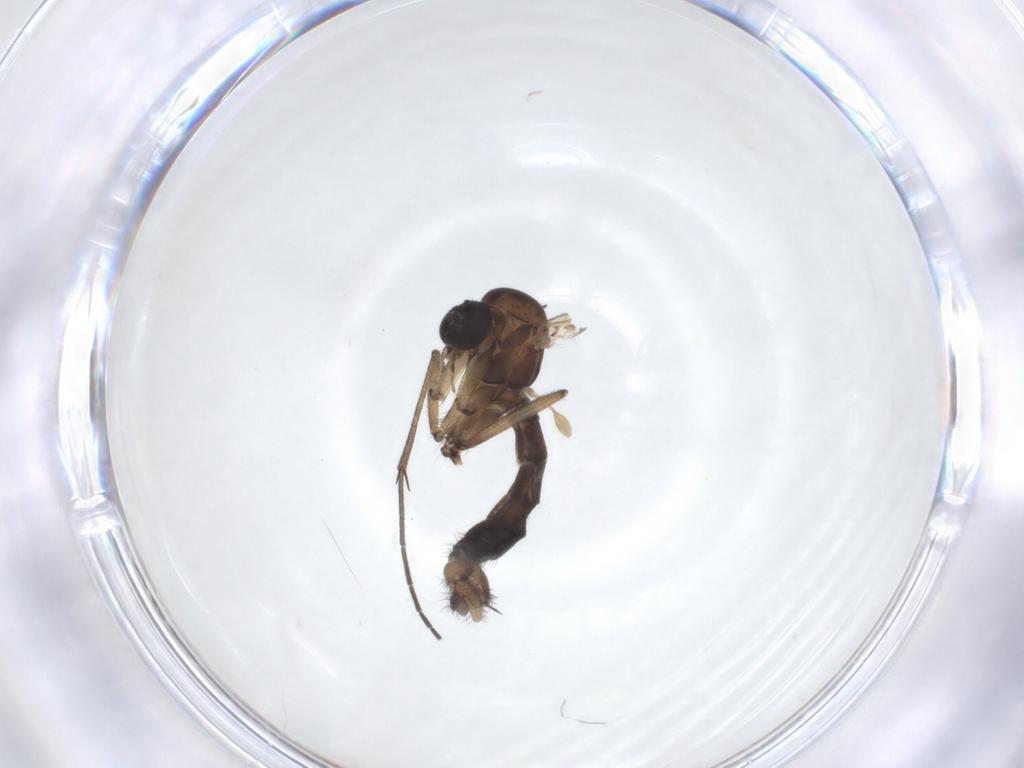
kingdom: Animalia
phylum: Arthropoda
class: Insecta
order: Diptera
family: Mycetophilidae
